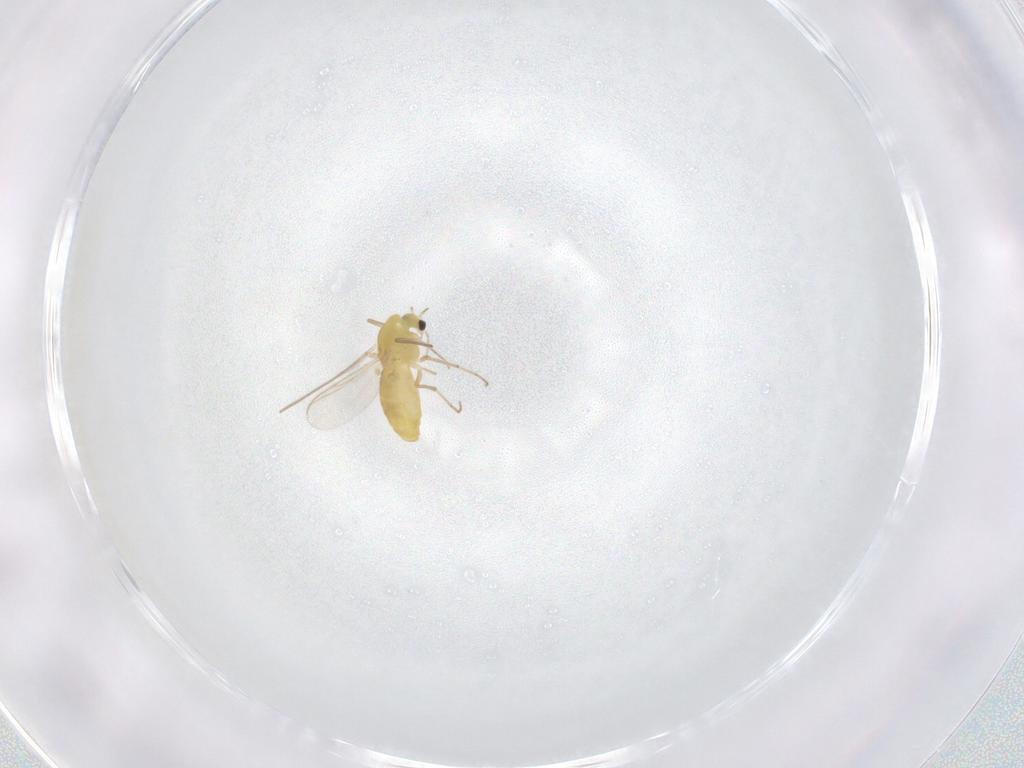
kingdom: Animalia
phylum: Arthropoda
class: Insecta
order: Diptera
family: Chironomidae
